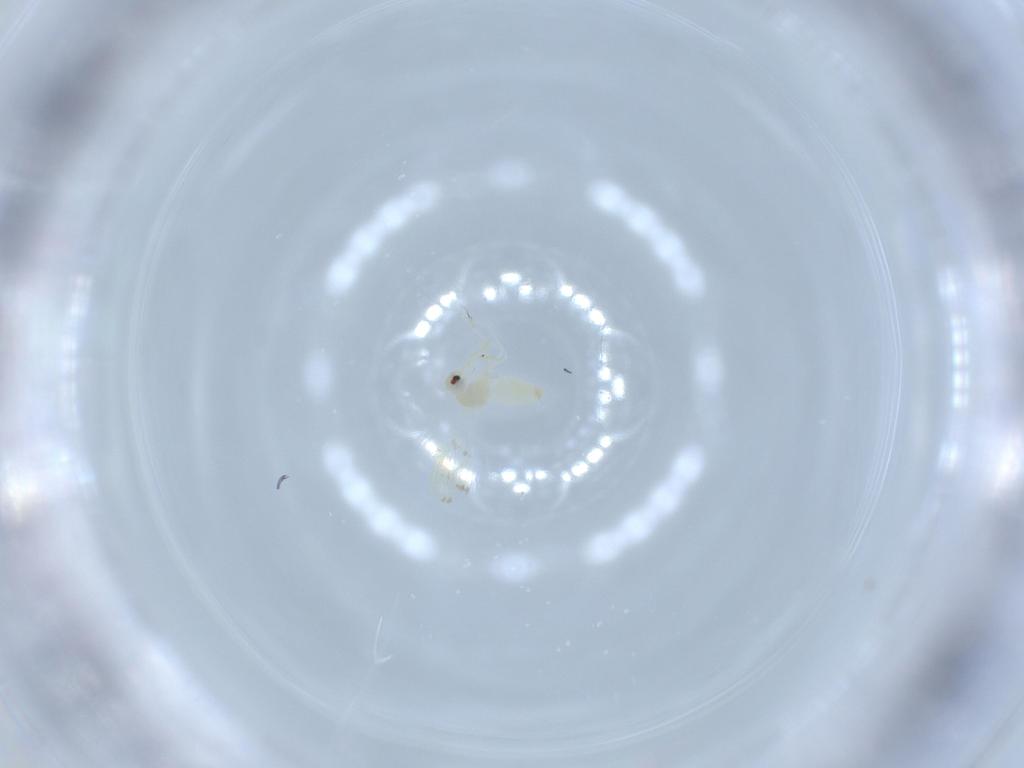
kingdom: Animalia
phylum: Arthropoda
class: Insecta
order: Hemiptera
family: Aleyrodidae
